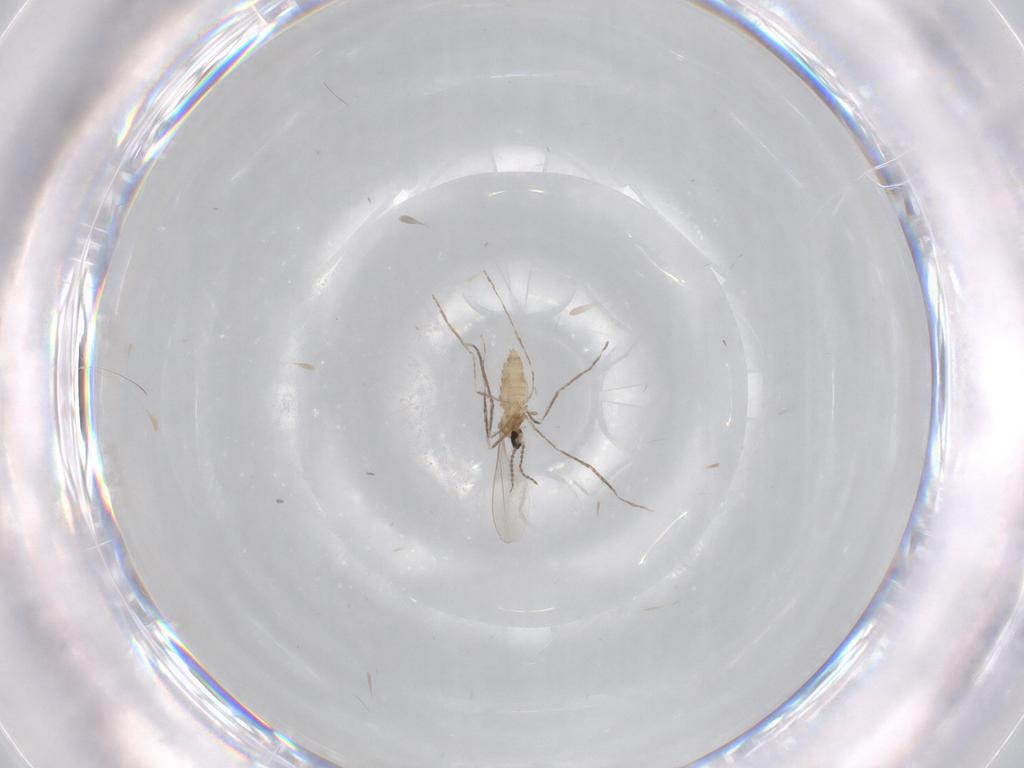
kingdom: Animalia
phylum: Arthropoda
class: Insecta
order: Diptera
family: Cecidomyiidae
